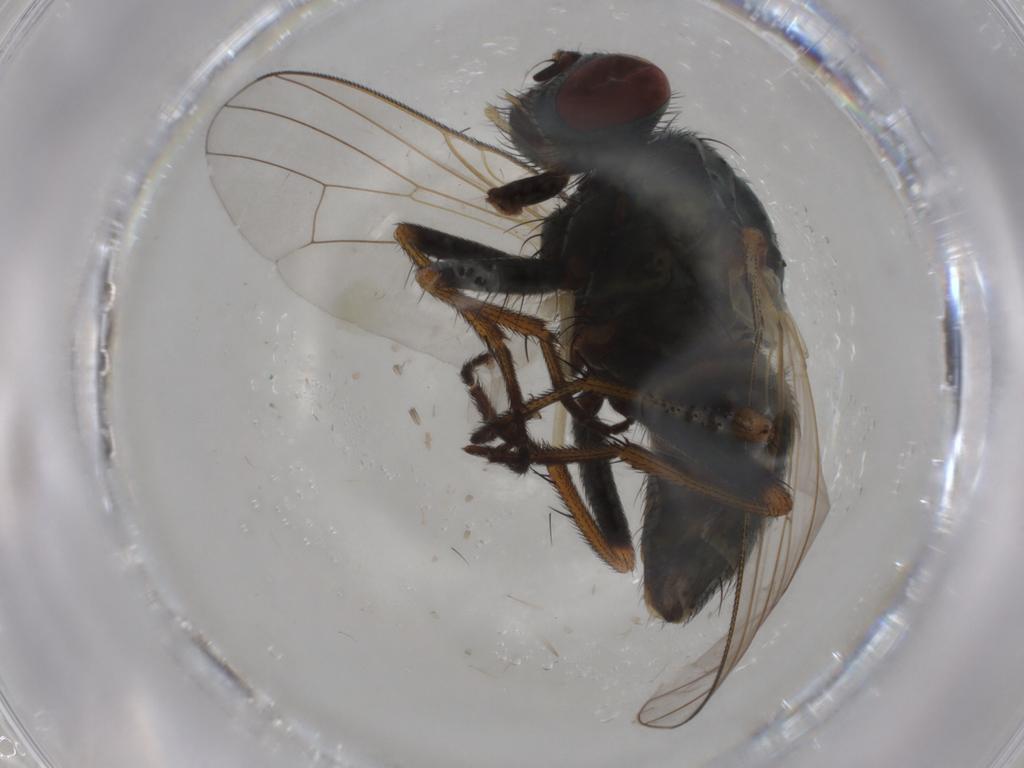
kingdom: Animalia
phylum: Arthropoda
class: Insecta
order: Diptera
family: Muscidae
